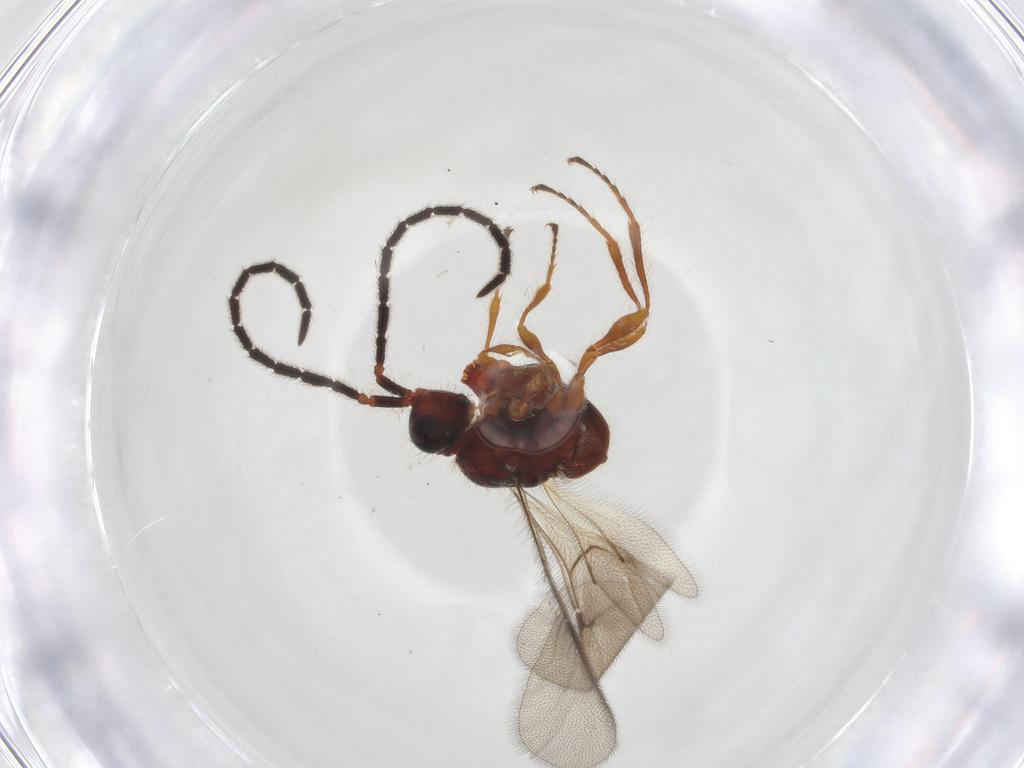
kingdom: Animalia
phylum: Arthropoda
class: Insecta
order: Hymenoptera
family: Diapriidae
